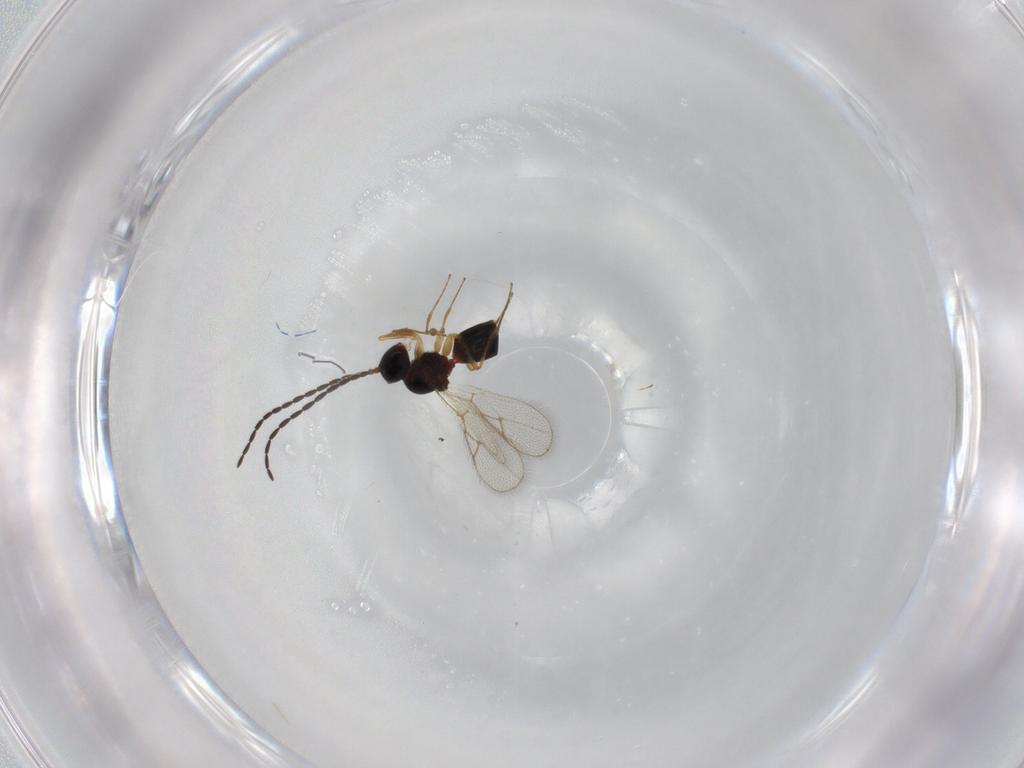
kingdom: Animalia
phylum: Arthropoda
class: Insecta
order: Hymenoptera
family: Figitidae
